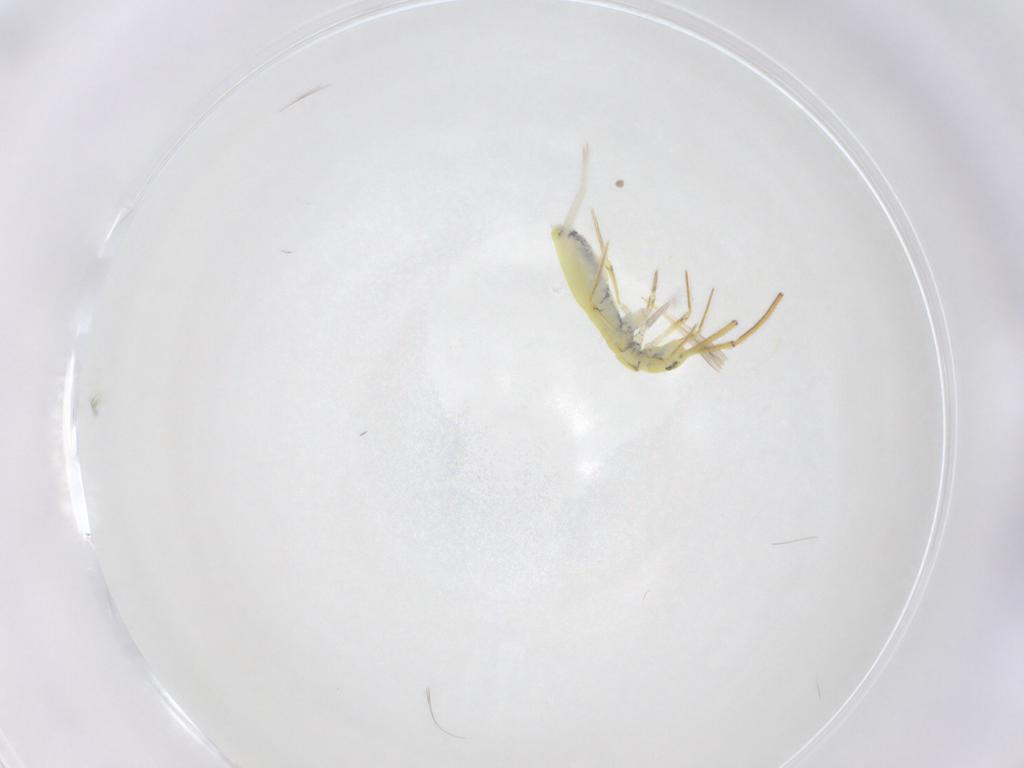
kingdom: Animalia
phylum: Arthropoda
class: Collembola
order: Entomobryomorpha
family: Entomobryidae
